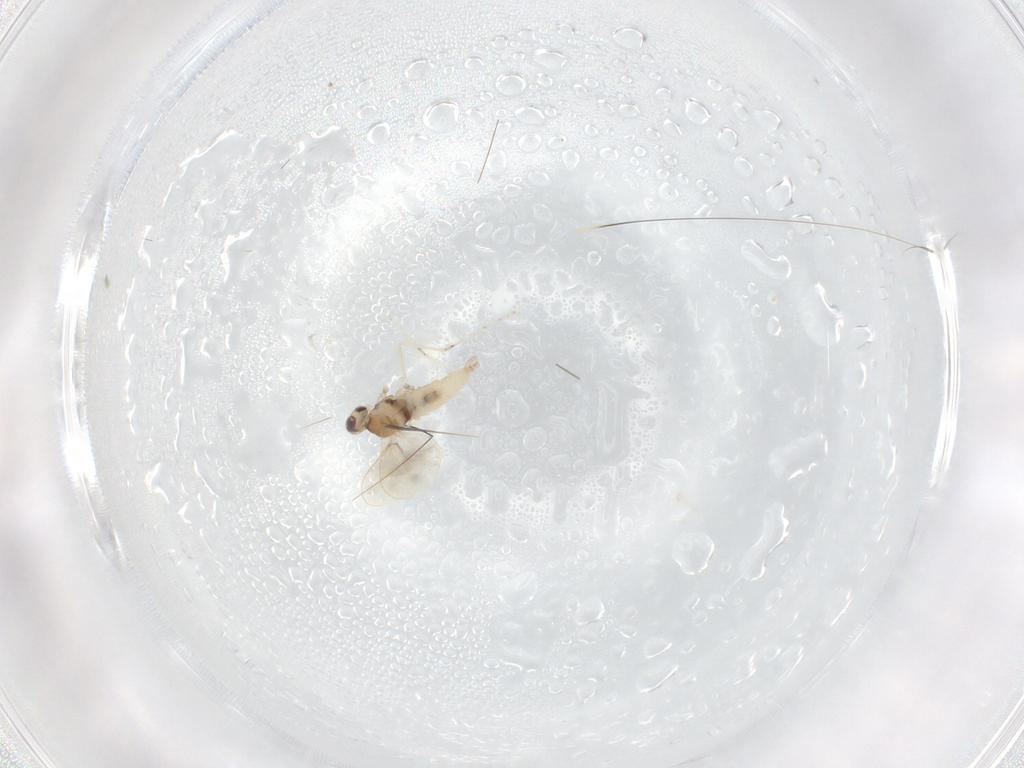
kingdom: Animalia
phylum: Arthropoda
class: Insecta
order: Diptera
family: Cecidomyiidae
